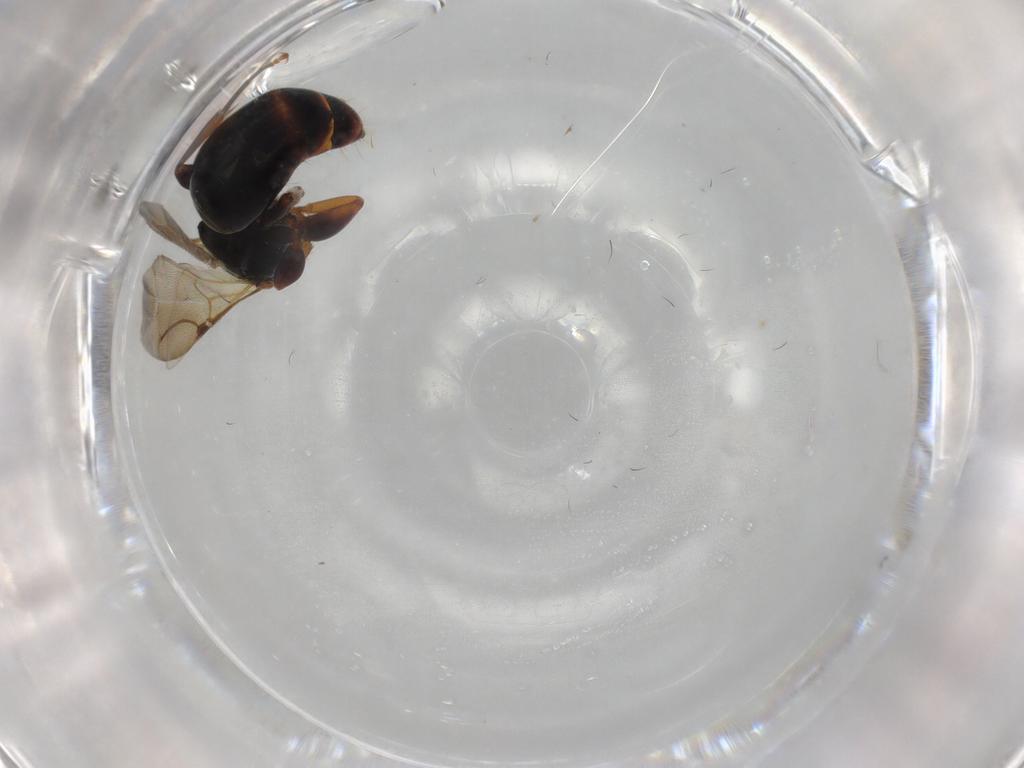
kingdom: Animalia
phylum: Arthropoda
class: Insecta
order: Hymenoptera
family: Bethylidae
